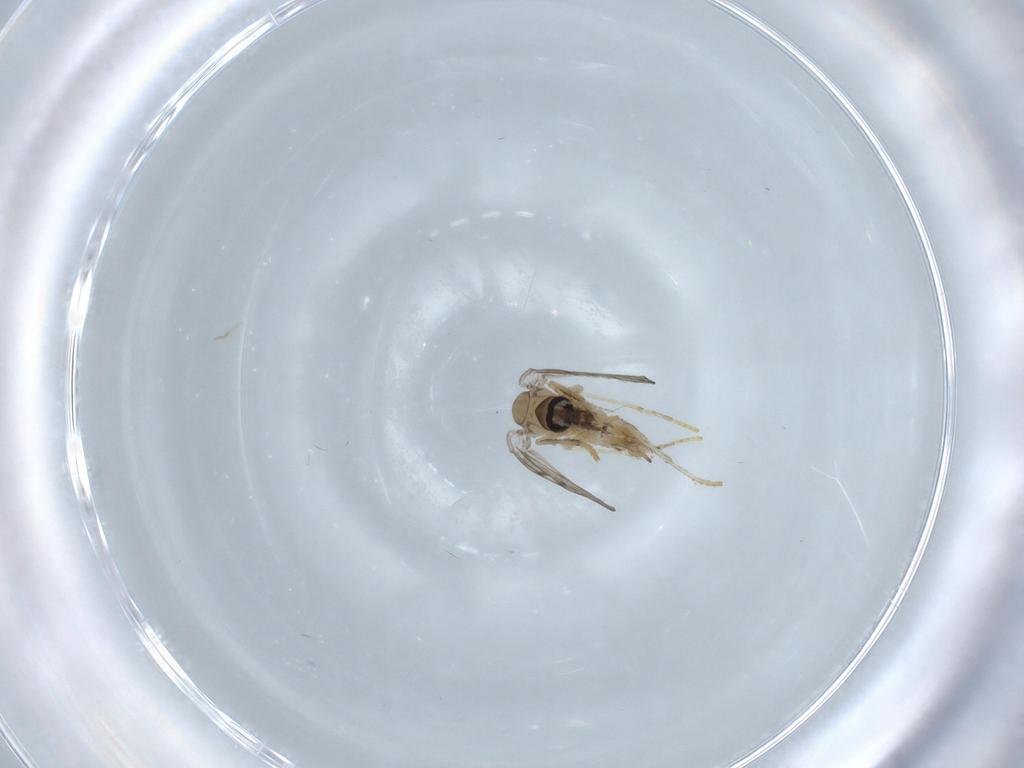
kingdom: Animalia
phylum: Arthropoda
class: Insecta
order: Diptera
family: Psychodidae
